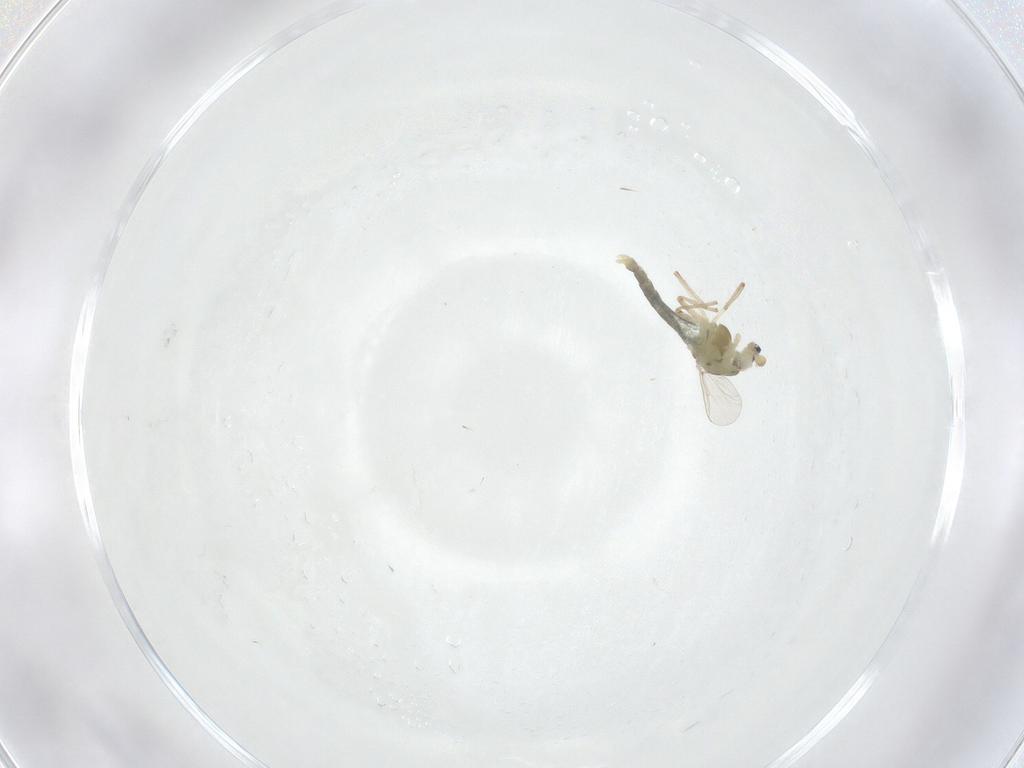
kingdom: Animalia
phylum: Arthropoda
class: Insecta
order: Diptera
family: Chironomidae
